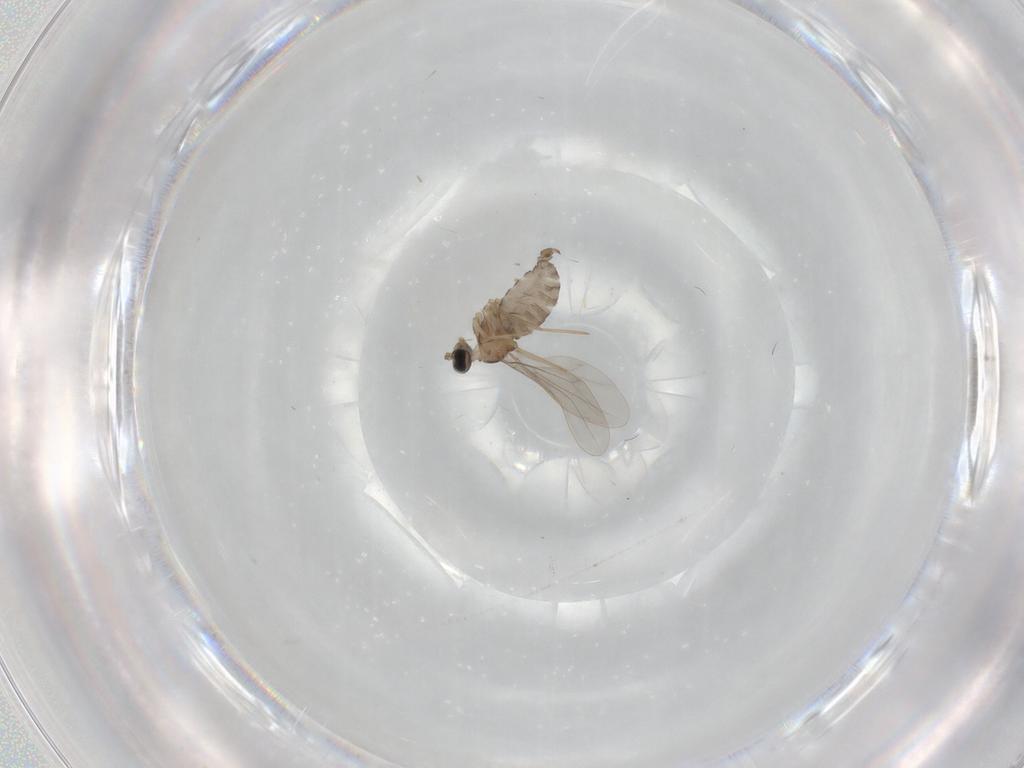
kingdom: Animalia
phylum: Arthropoda
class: Insecta
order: Diptera
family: Cecidomyiidae
